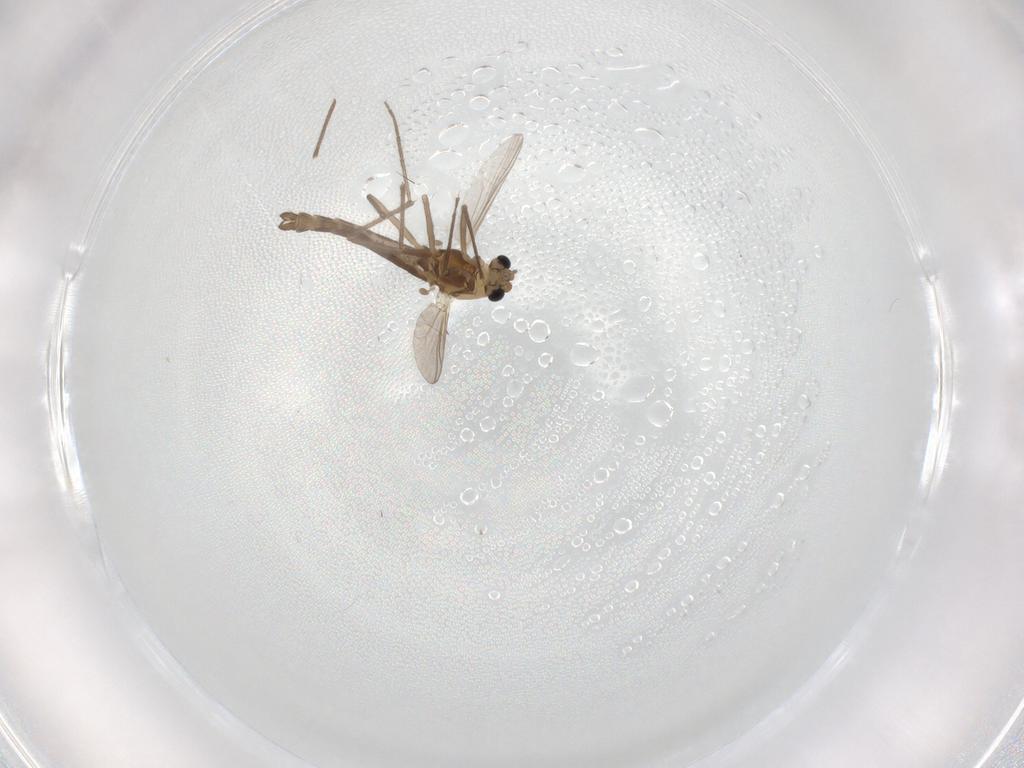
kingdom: Animalia
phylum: Arthropoda
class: Insecta
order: Diptera
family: Chironomidae
